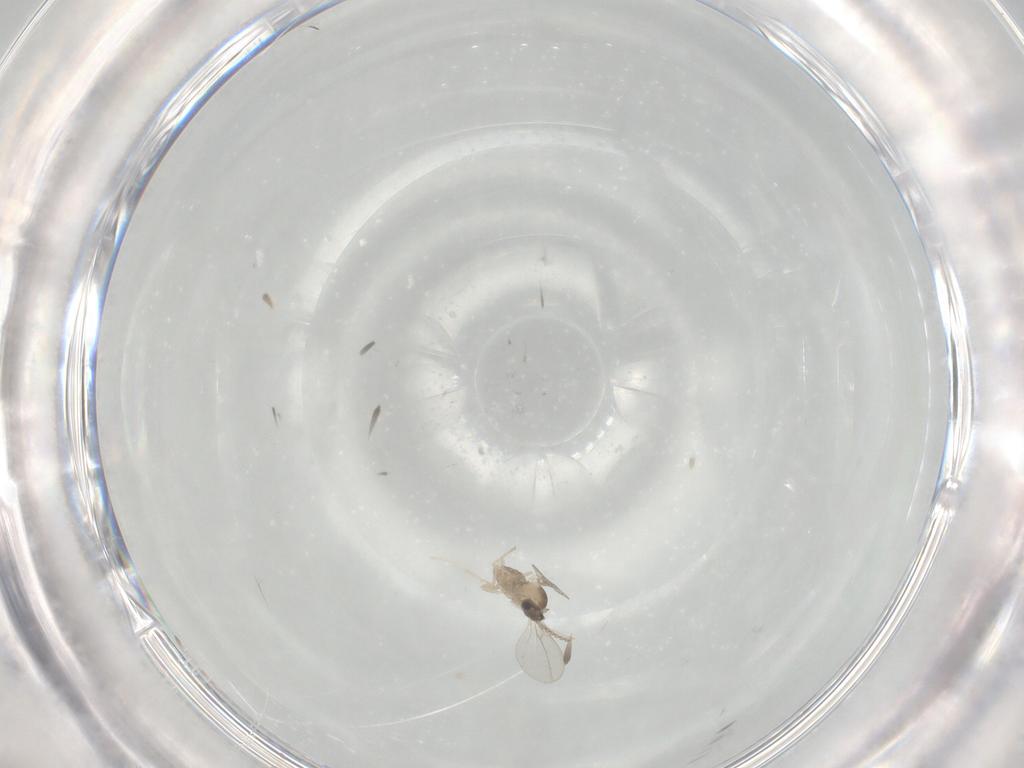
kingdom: Animalia
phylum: Arthropoda
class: Insecta
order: Diptera
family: Cecidomyiidae
